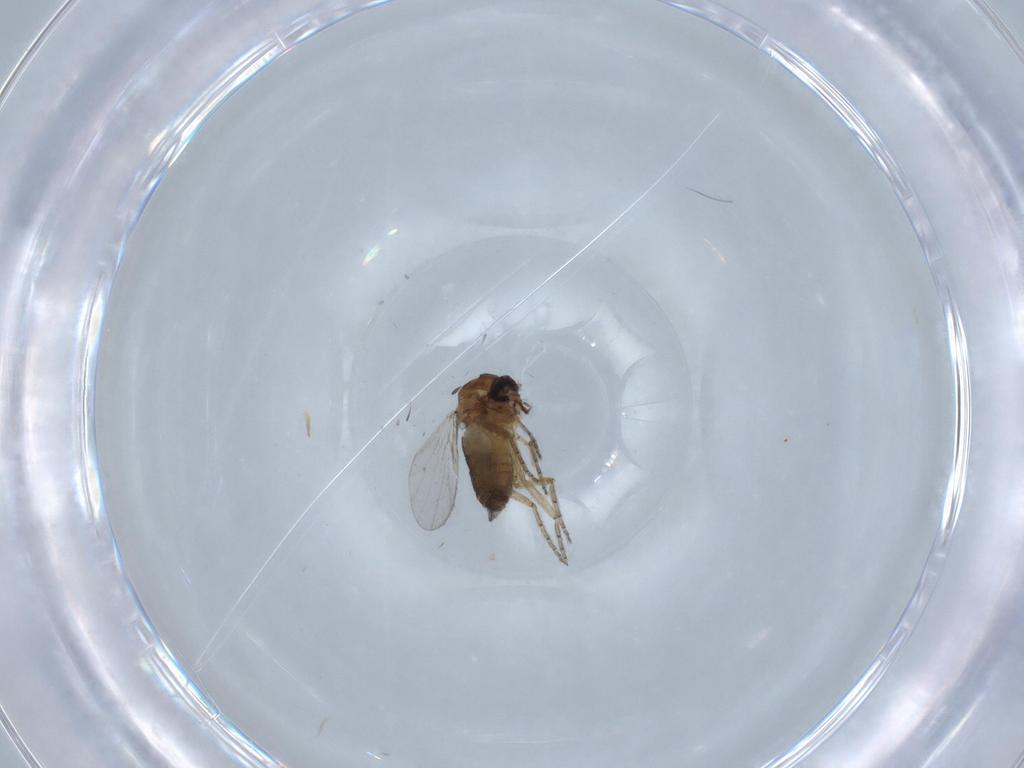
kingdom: Animalia
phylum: Arthropoda
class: Insecta
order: Diptera
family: Ceratopogonidae
